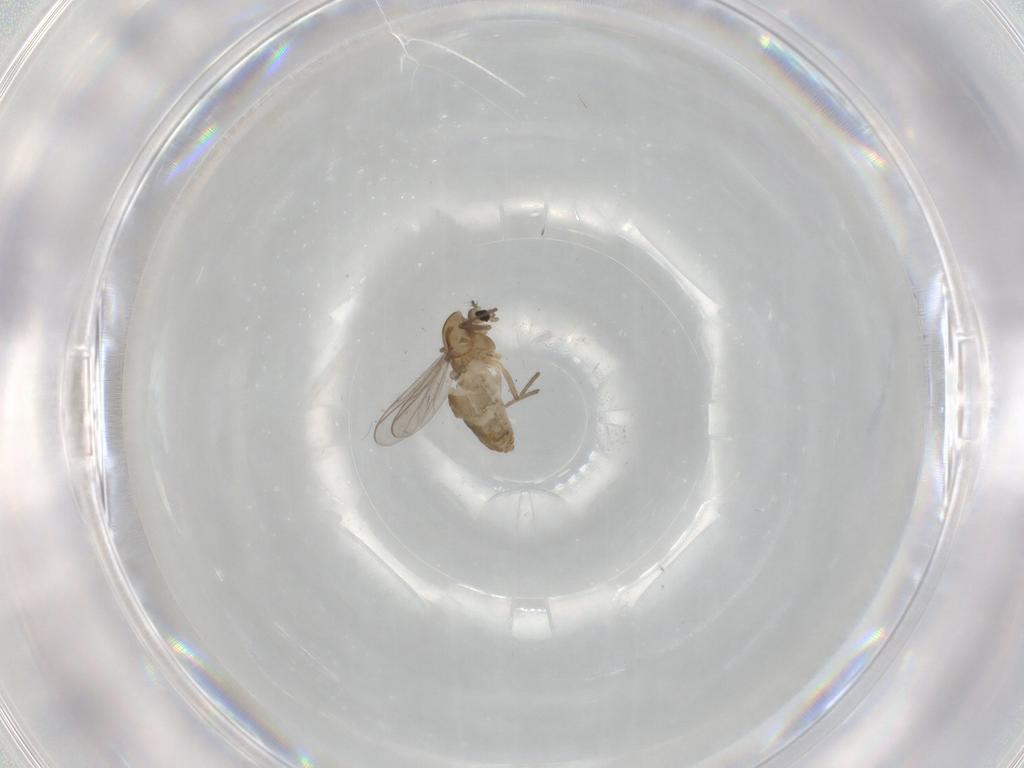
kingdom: Animalia
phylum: Arthropoda
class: Insecta
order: Diptera
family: Chironomidae
